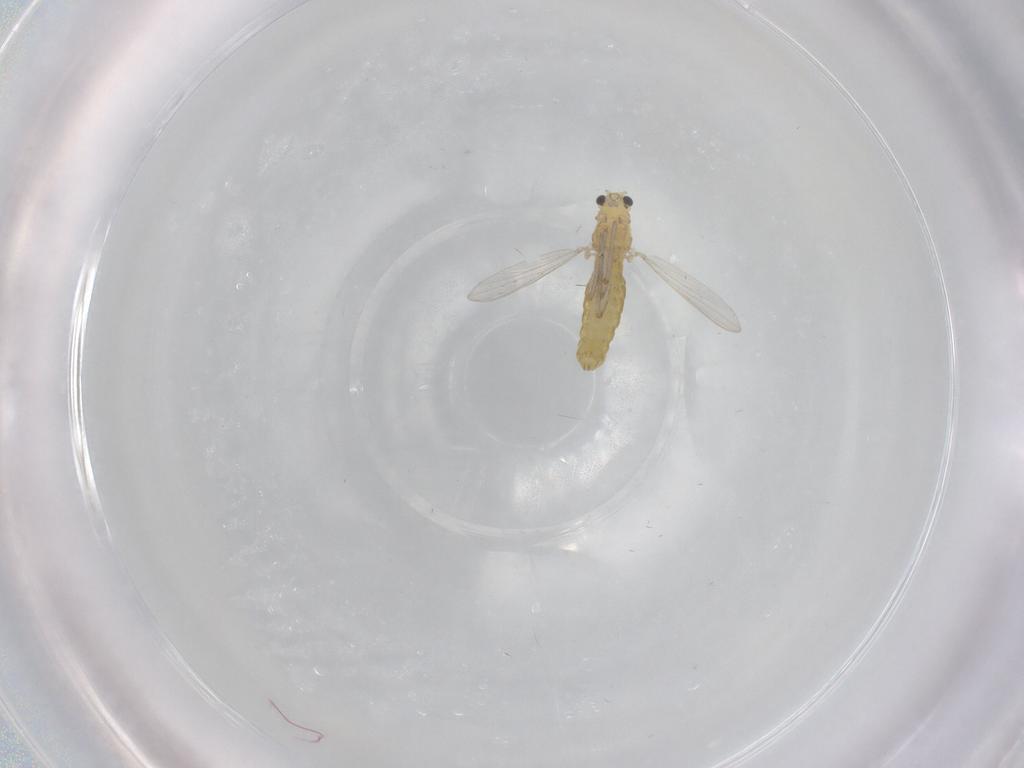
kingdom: Animalia
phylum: Arthropoda
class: Insecta
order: Diptera
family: Chironomidae
